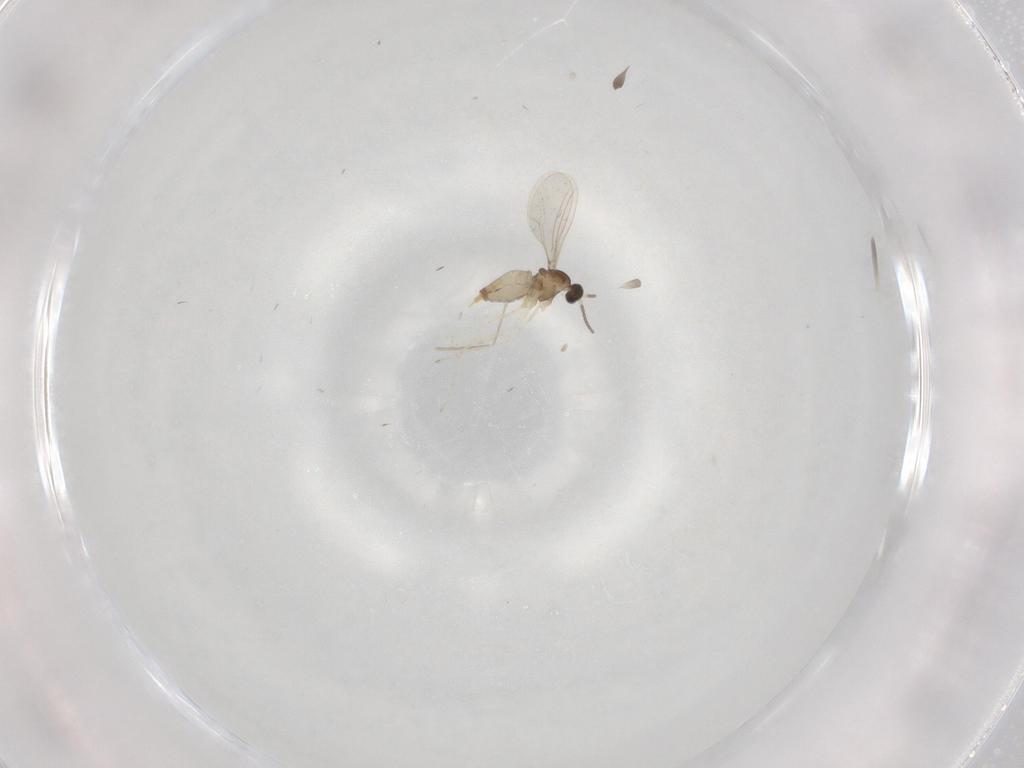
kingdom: Animalia
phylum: Arthropoda
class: Insecta
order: Diptera
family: Cecidomyiidae
